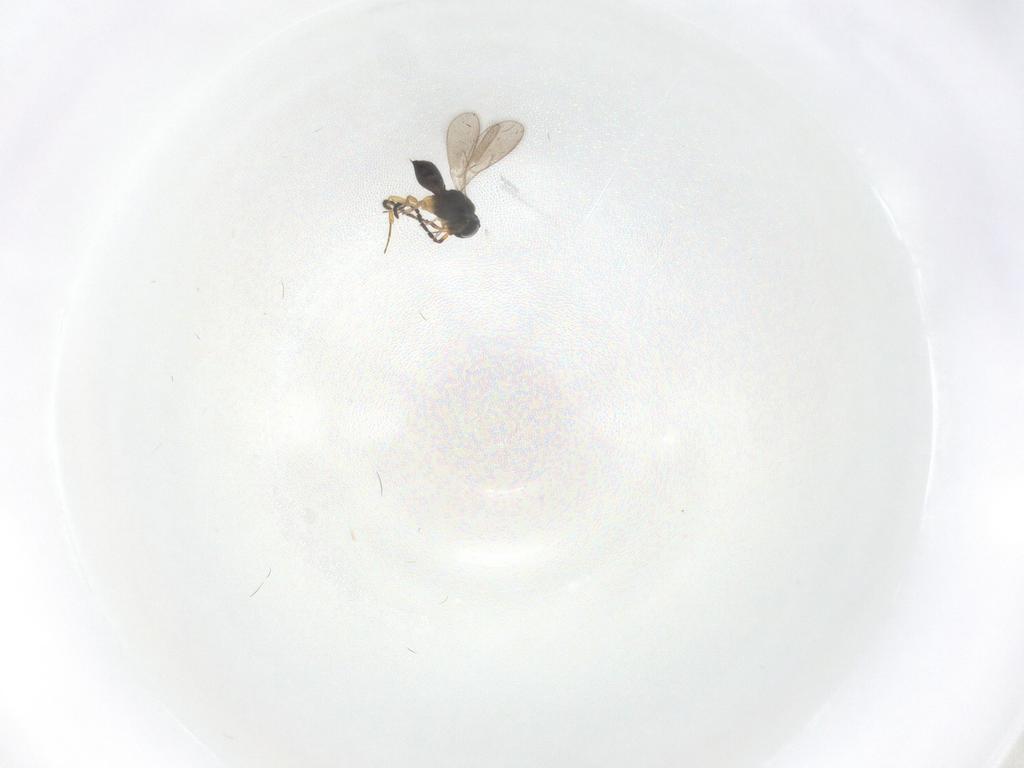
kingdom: Animalia
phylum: Arthropoda
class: Insecta
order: Hymenoptera
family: Scelionidae
